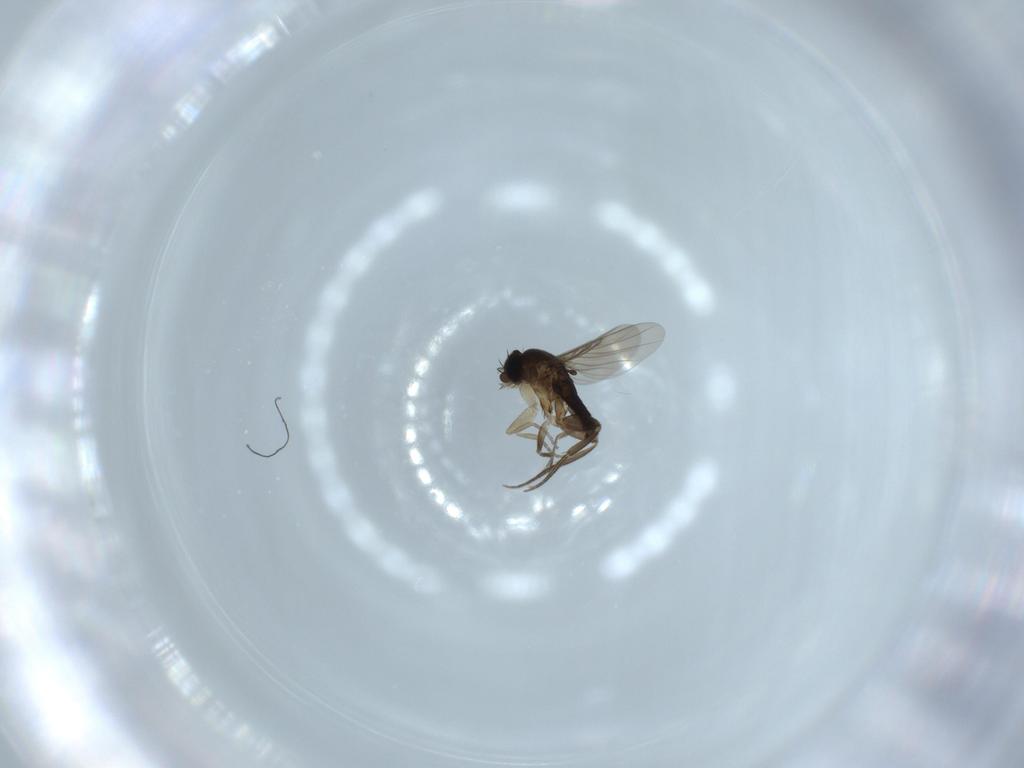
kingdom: Animalia
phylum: Arthropoda
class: Insecta
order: Diptera
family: Phoridae
